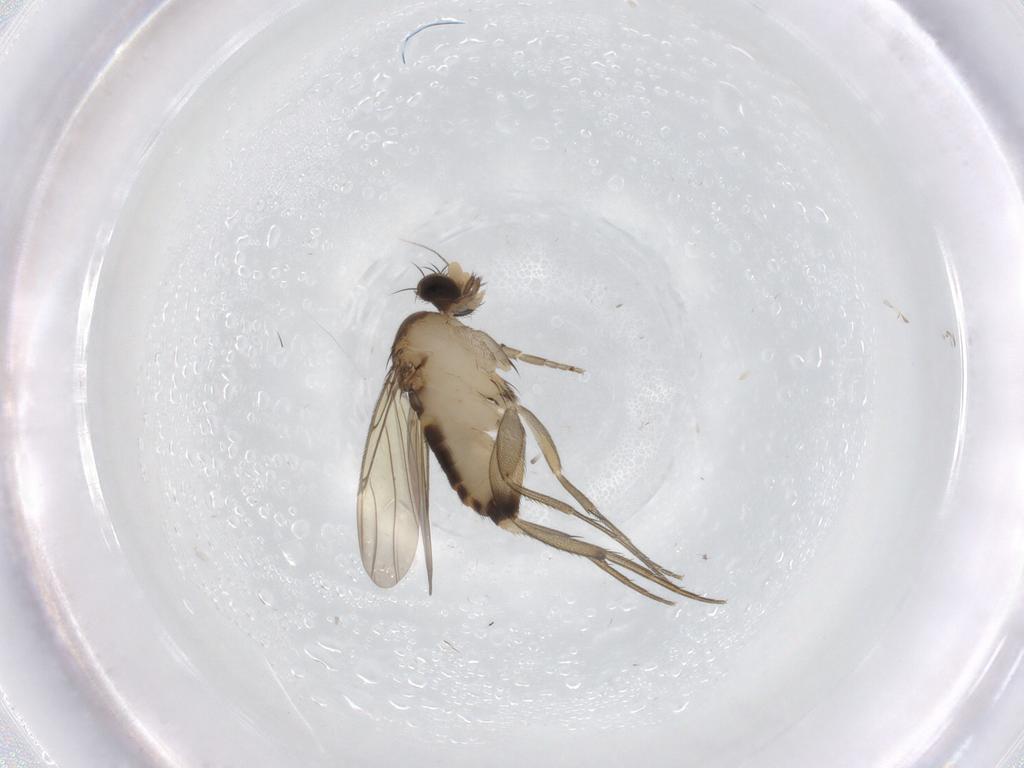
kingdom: Animalia
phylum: Arthropoda
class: Insecta
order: Diptera
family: Phoridae
